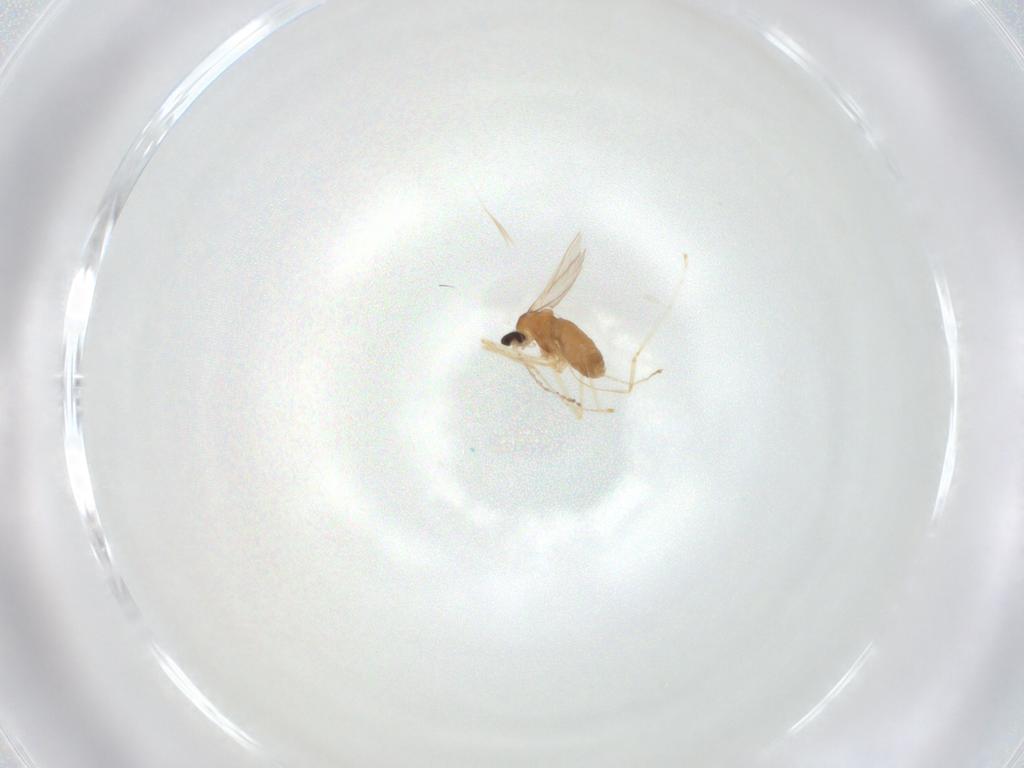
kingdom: Animalia
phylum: Arthropoda
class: Insecta
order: Diptera
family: Cecidomyiidae
